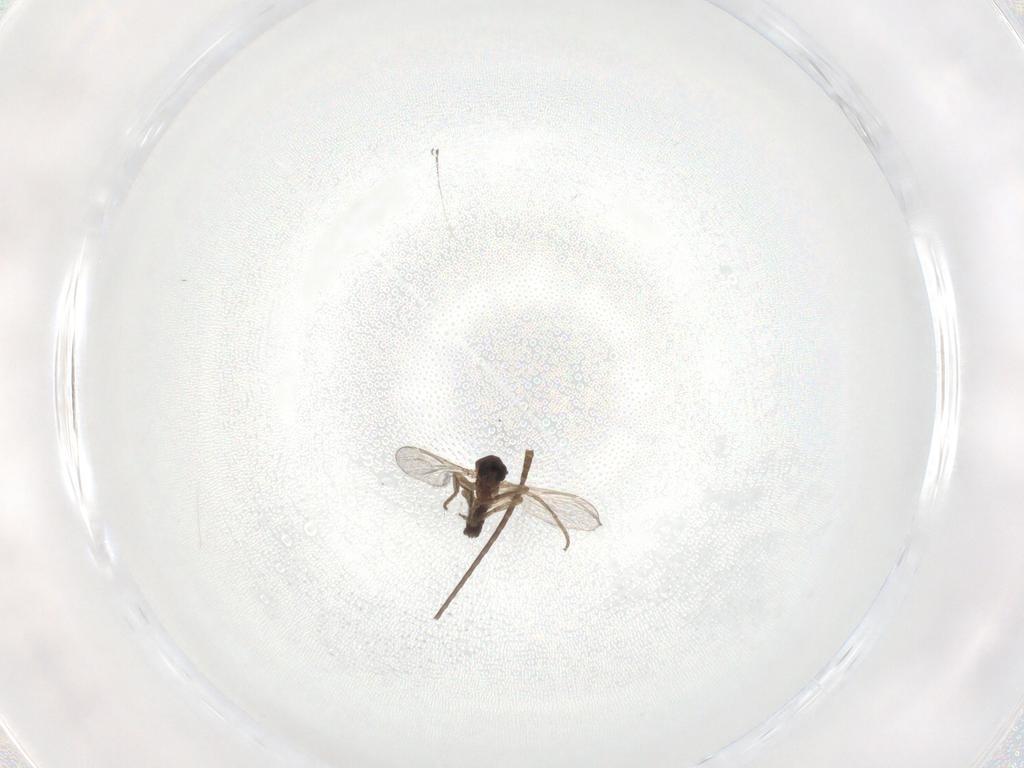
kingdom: Animalia
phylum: Arthropoda
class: Insecta
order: Diptera
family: Ceratopogonidae
